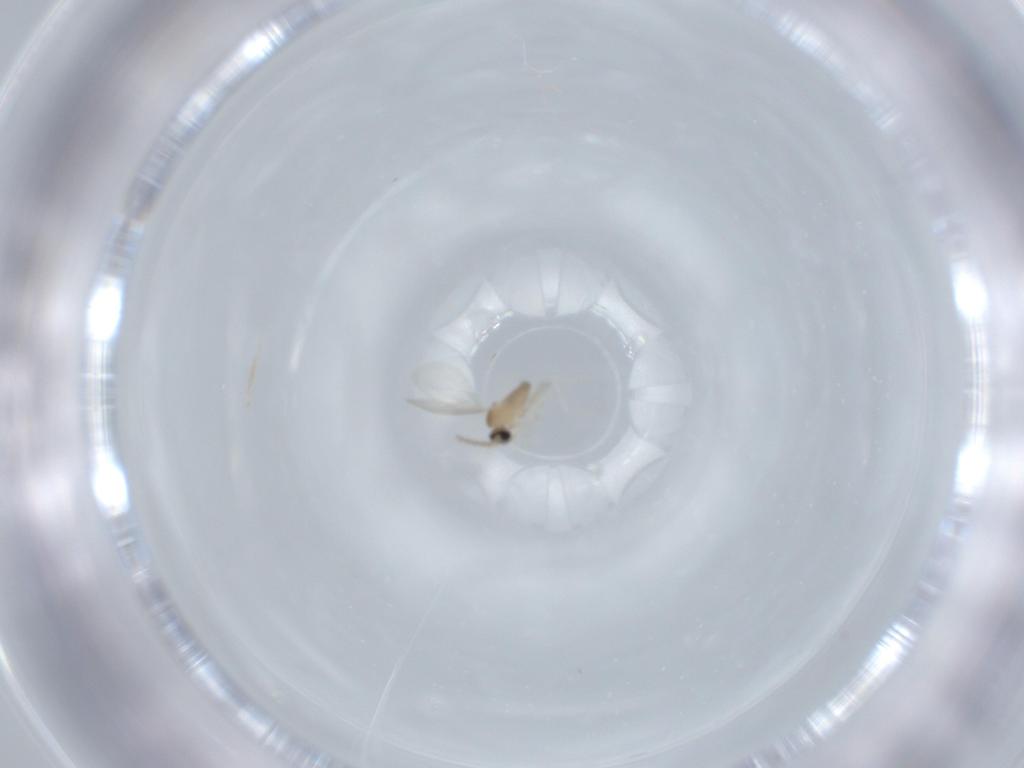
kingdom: Animalia
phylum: Arthropoda
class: Insecta
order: Diptera
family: Cecidomyiidae
